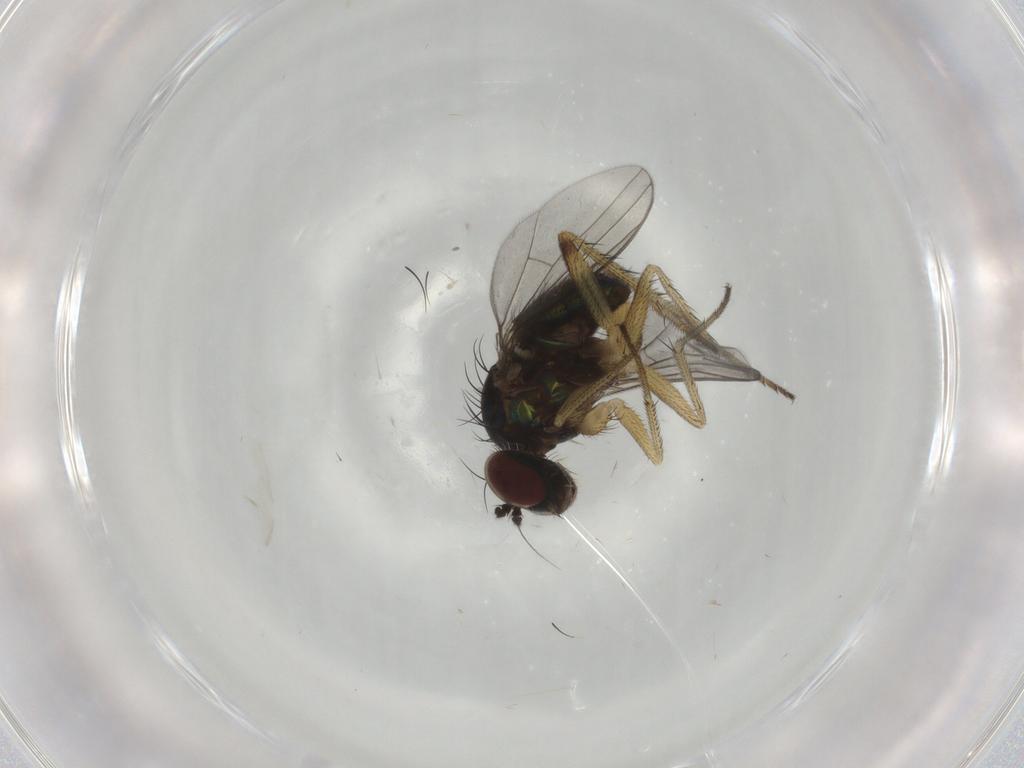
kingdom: Animalia
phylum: Arthropoda
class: Insecta
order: Diptera
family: Dolichopodidae
